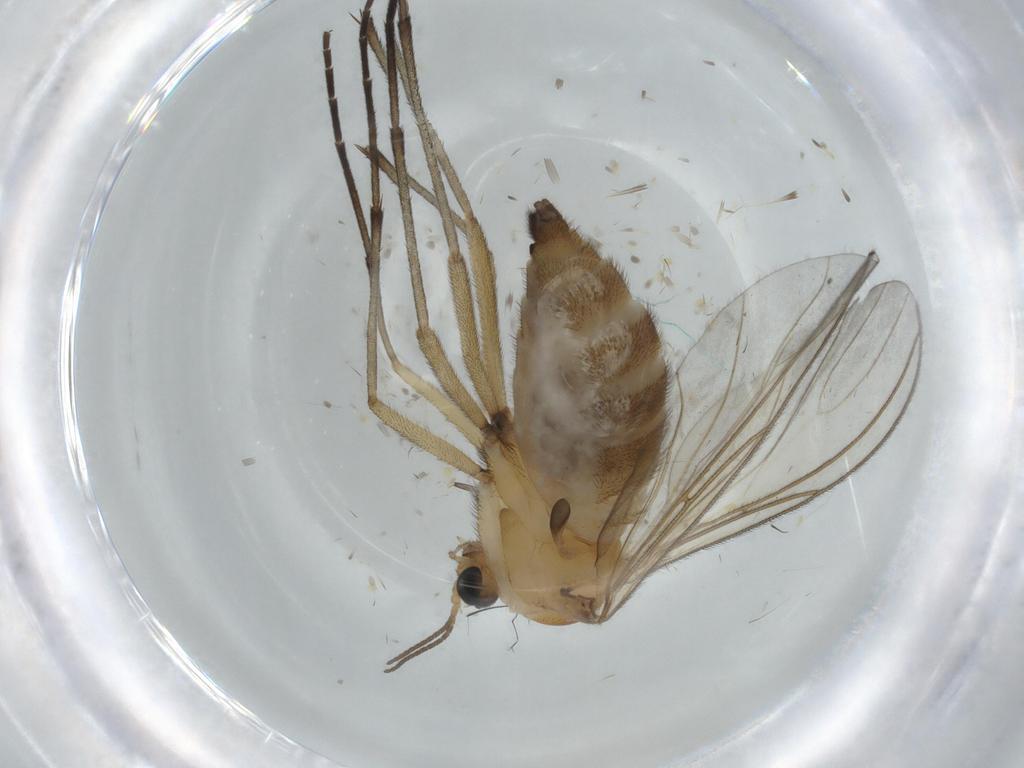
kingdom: Animalia
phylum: Arthropoda
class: Insecta
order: Diptera
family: Sciaridae
